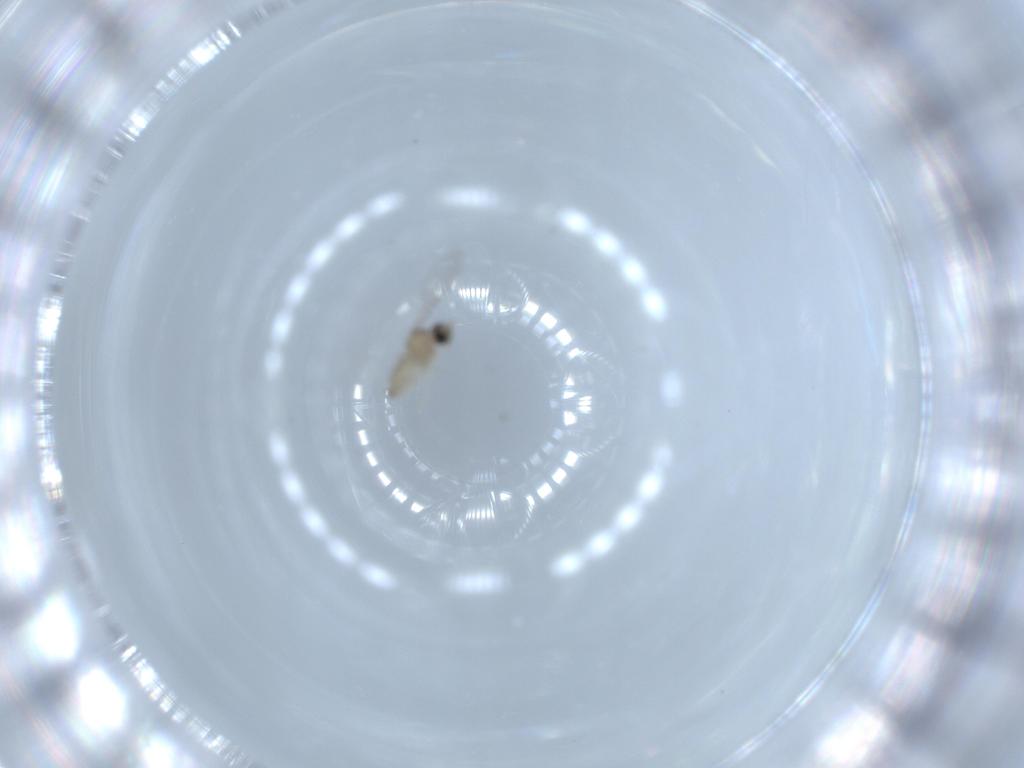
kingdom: Animalia
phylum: Arthropoda
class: Insecta
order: Diptera
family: Cecidomyiidae
